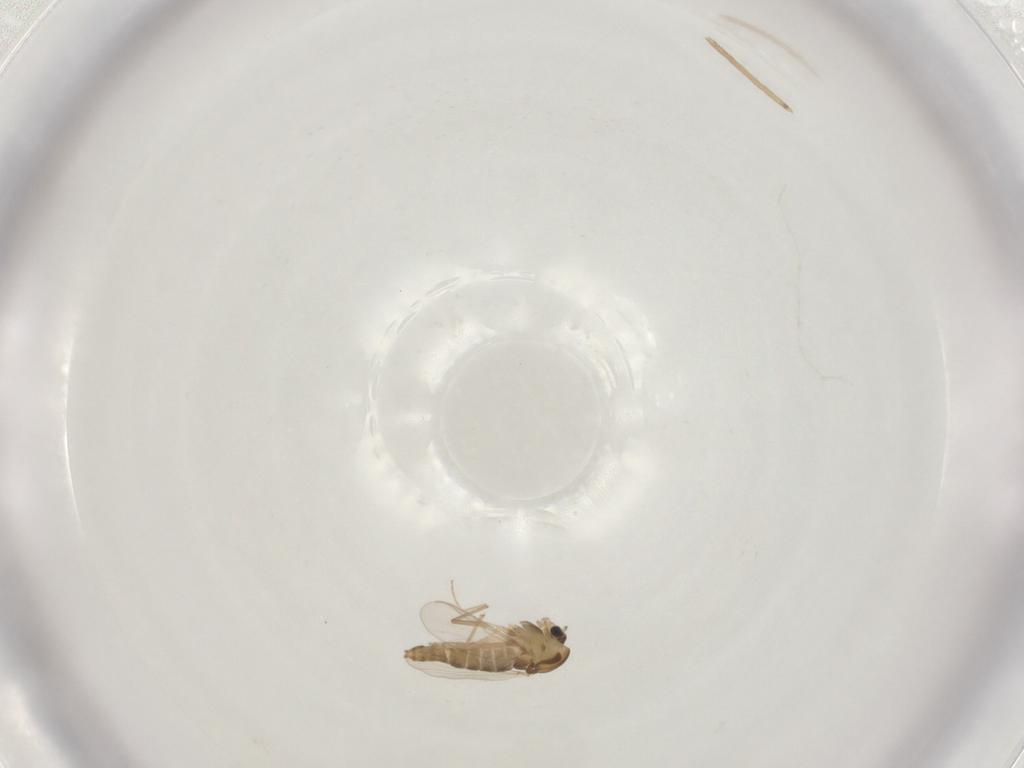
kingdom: Animalia
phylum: Arthropoda
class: Insecta
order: Diptera
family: Chironomidae
